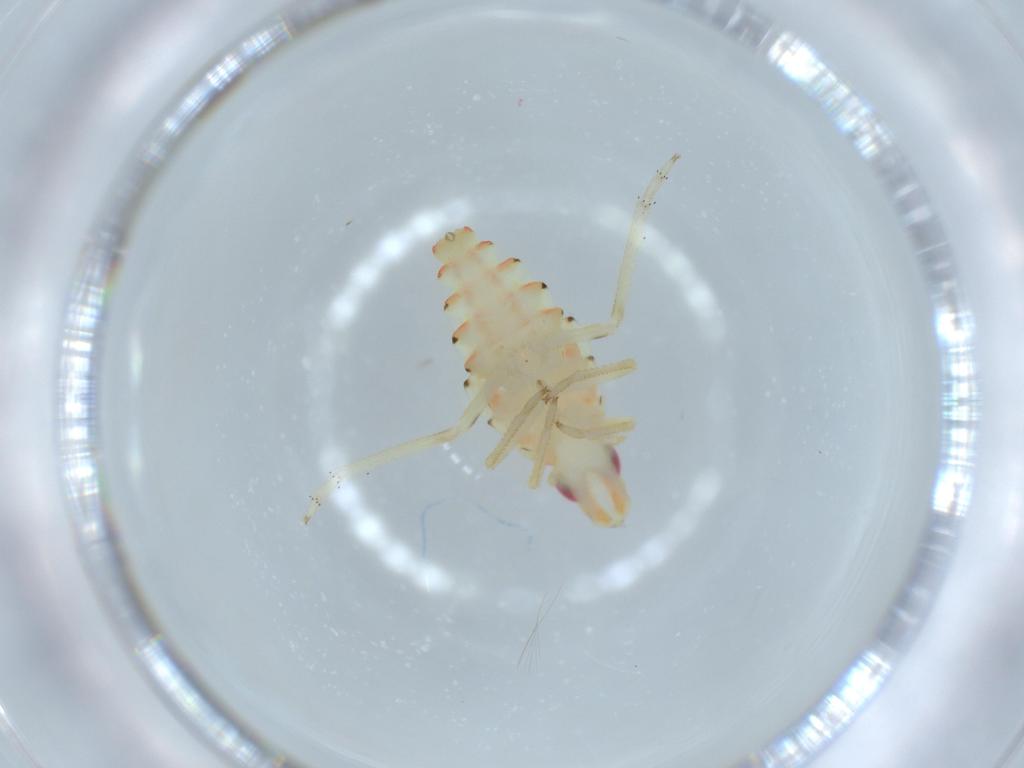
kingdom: Animalia
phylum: Arthropoda
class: Insecta
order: Hemiptera
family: Tropiduchidae
